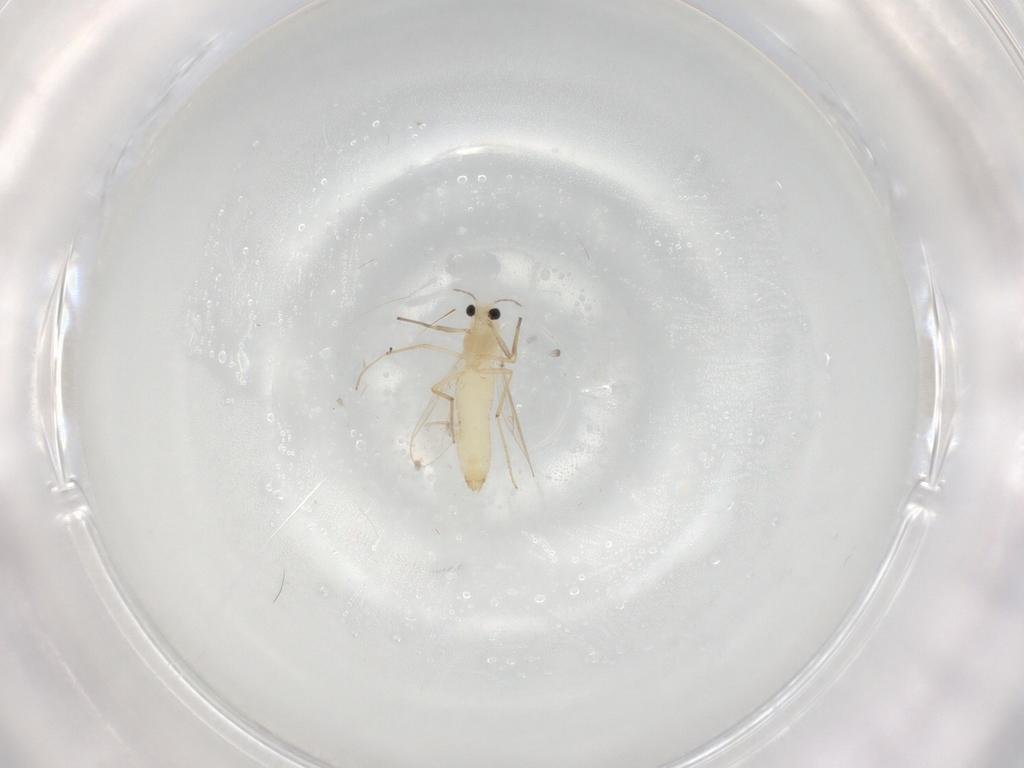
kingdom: Animalia
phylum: Arthropoda
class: Insecta
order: Diptera
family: Chironomidae
